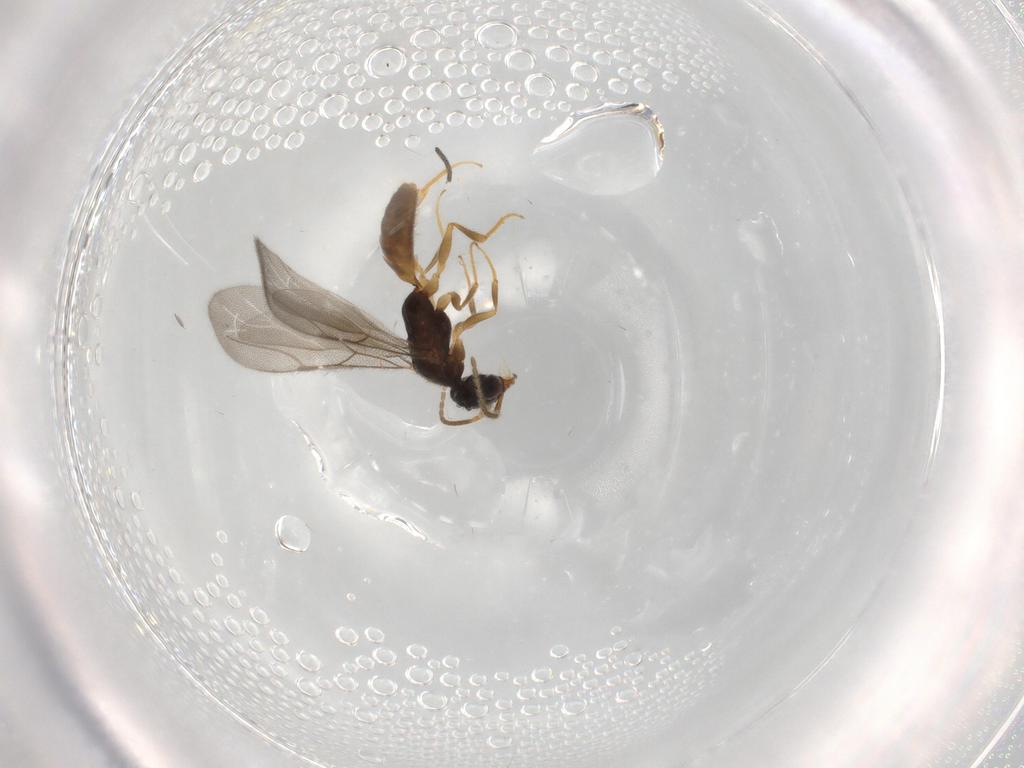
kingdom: Animalia
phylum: Arthropoda
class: Insecta
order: Hymenoptera
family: Bethylidae
